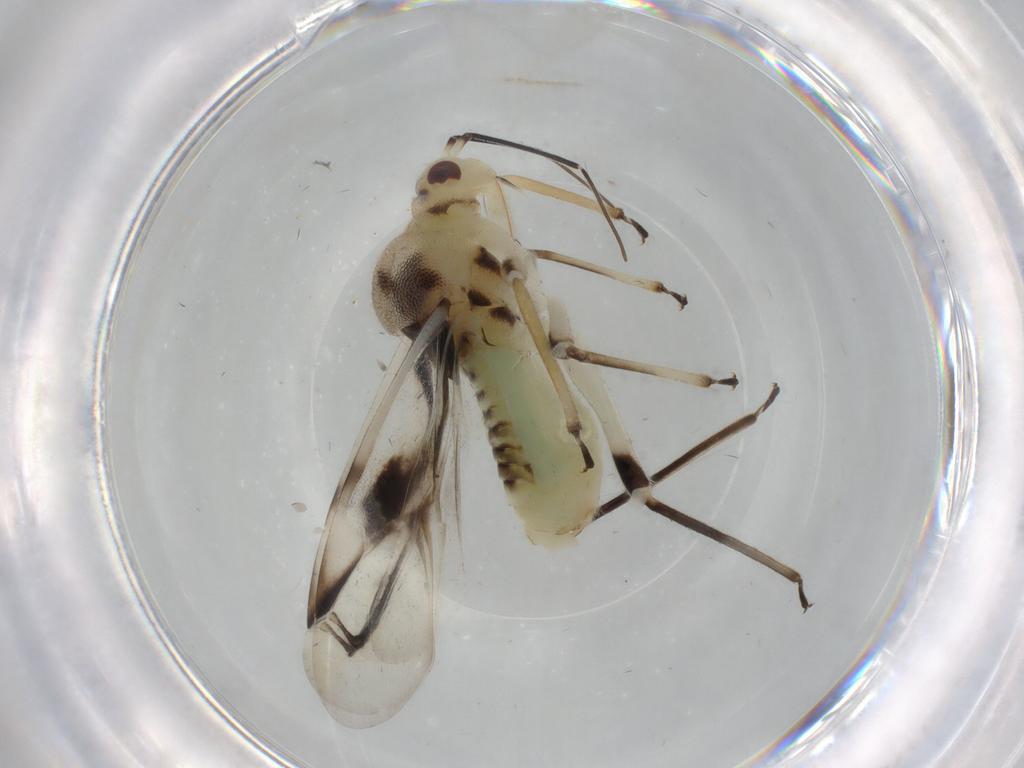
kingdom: Animalia
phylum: Arthropoda
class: Insecta
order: Hemiptera
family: Miridae
